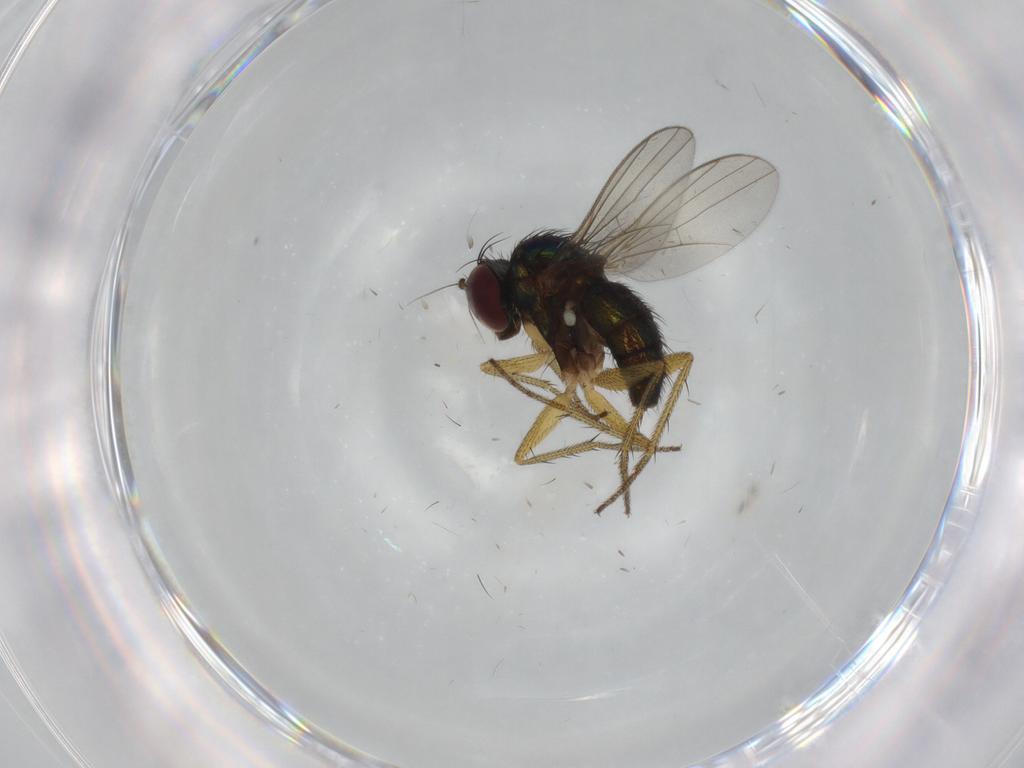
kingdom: Animalia
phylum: Arthropoda
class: Insecta
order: Diptera
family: Dolichopodidae
